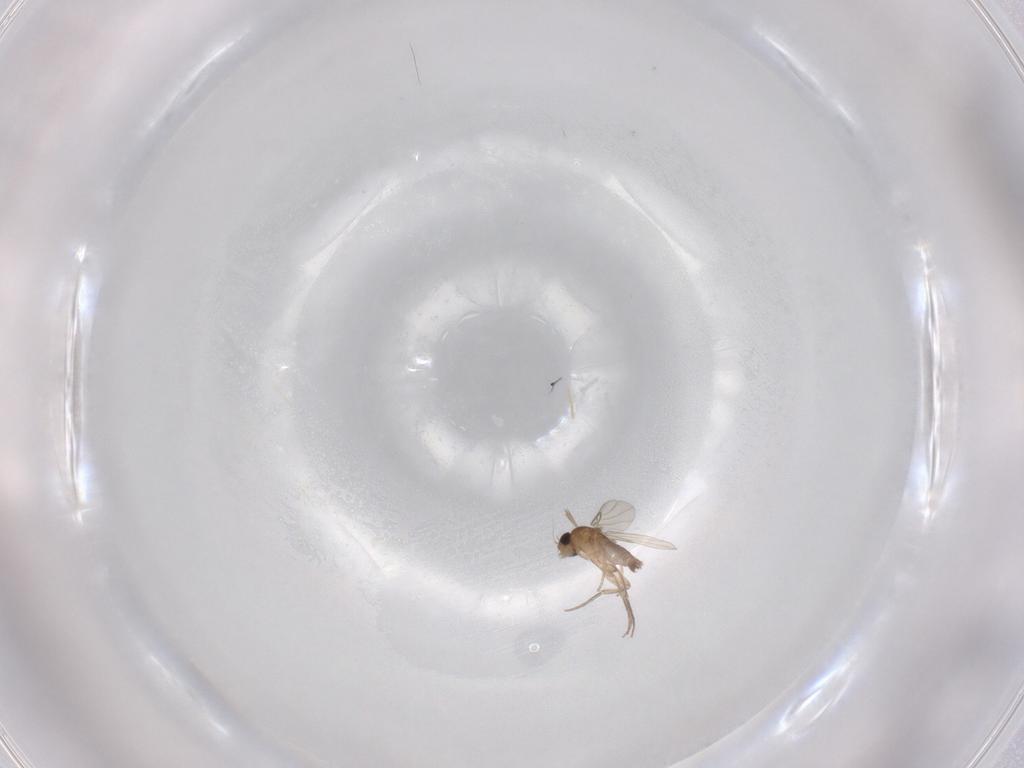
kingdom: Animalia
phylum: Arthropoda
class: Insecta
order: Diptera
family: Phoridae
